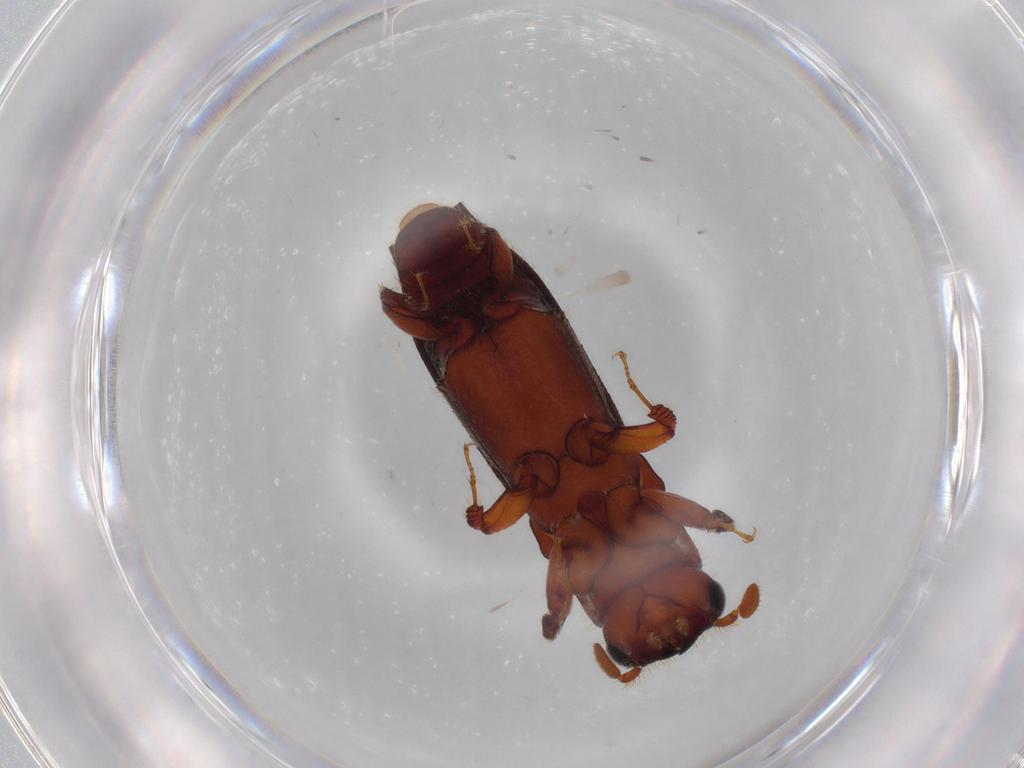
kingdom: Animalia
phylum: Arthropoda
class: Insecta
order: Coleoptera
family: Curculionidae
